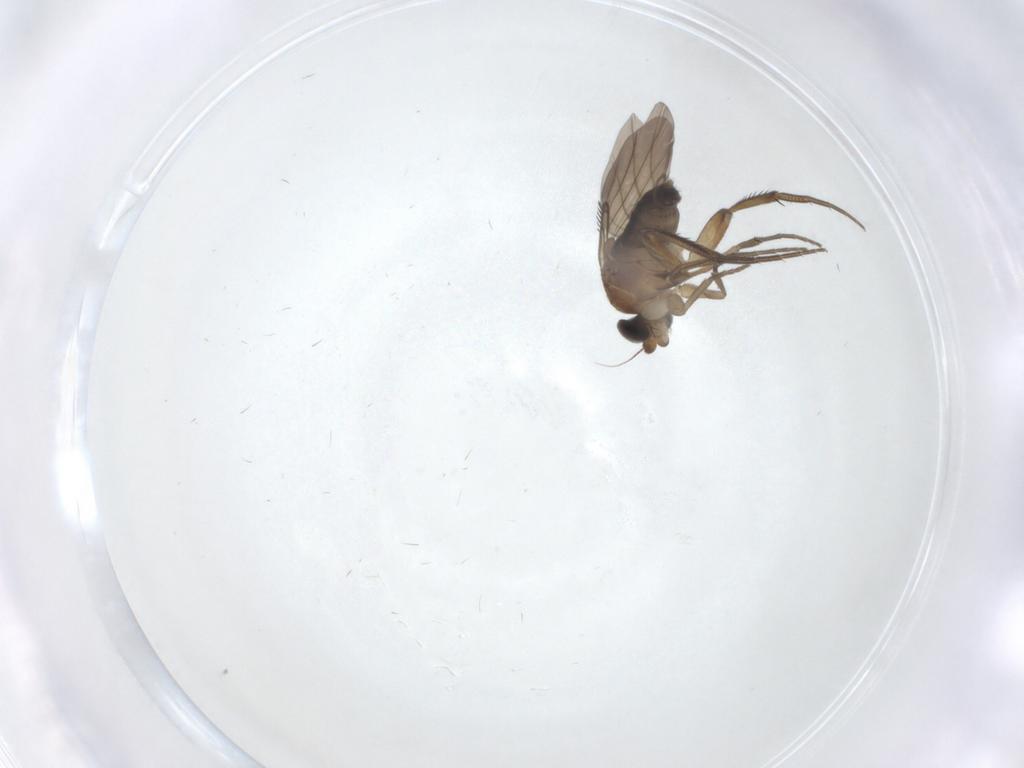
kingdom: Animalia
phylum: Arthropoda
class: Insecta
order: Diptera
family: Phoridae
